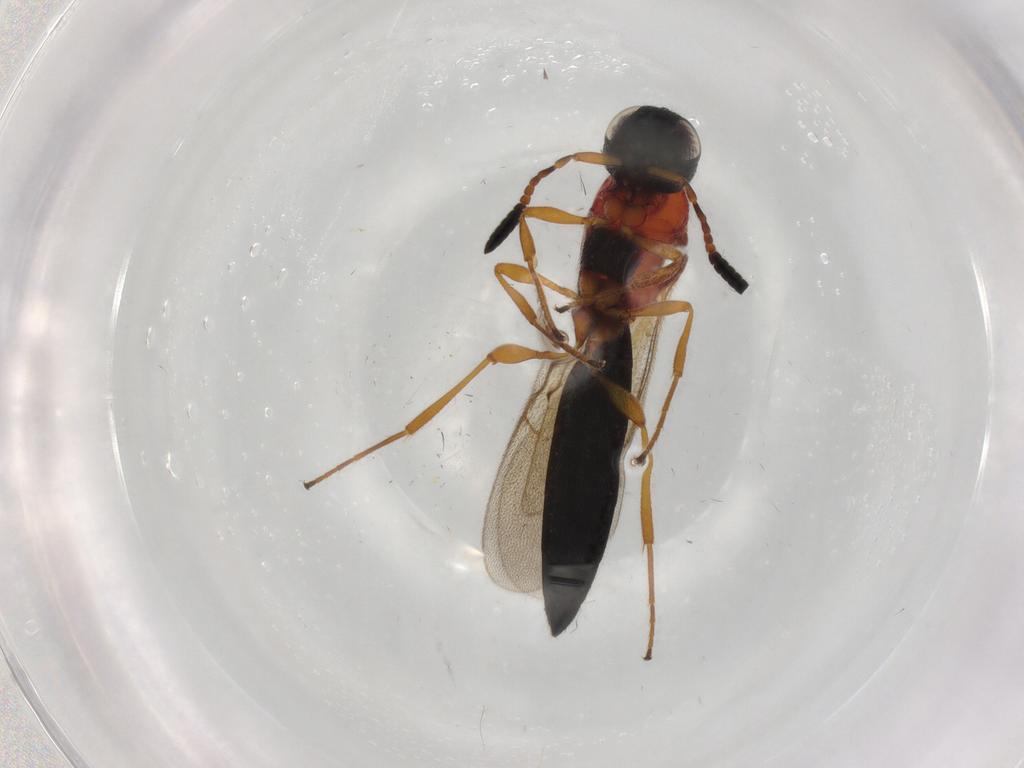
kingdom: Animalia
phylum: Arthropoda
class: Insecta
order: Hymenoptera
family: Scelionidae
